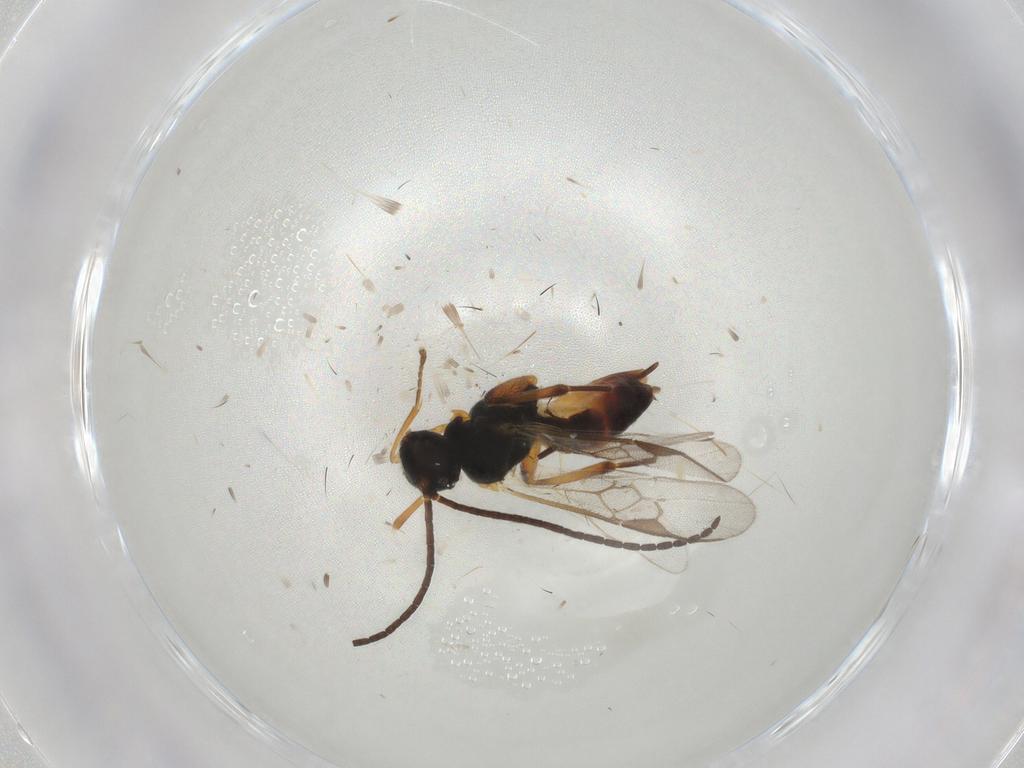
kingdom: Animalia
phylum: Arthropoda
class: Insecta
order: Hymenoptera
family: Braconidae
